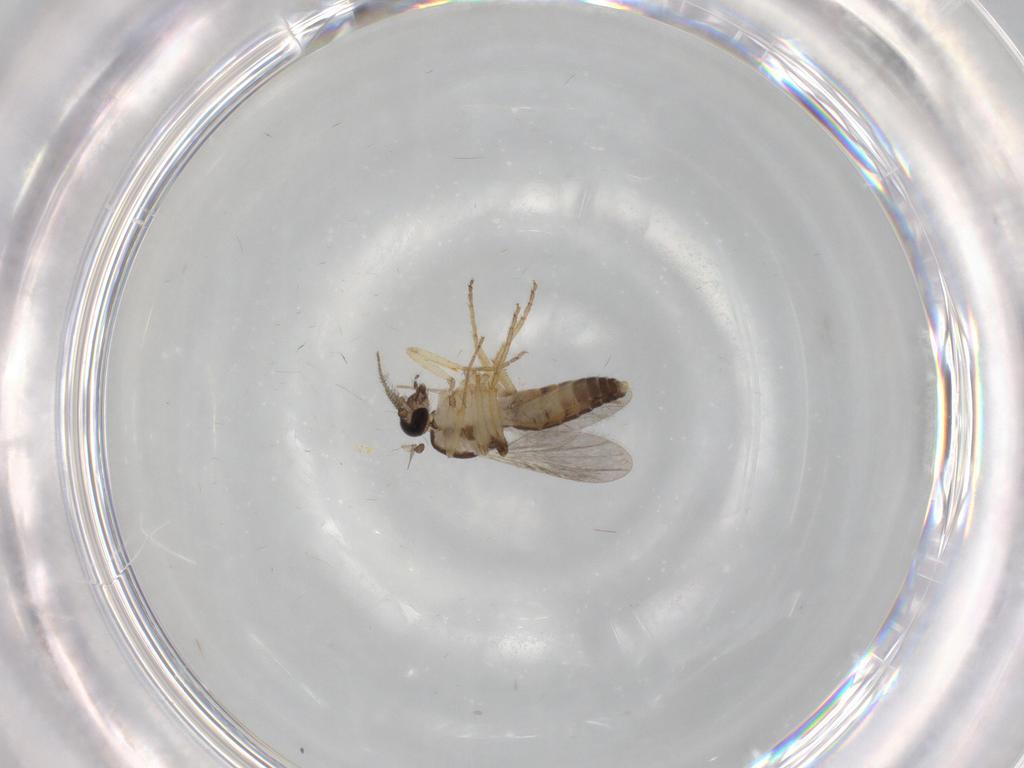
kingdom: Animalia
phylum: Arthropoda
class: Insecta
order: Diptera
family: Ceratopogonidae
